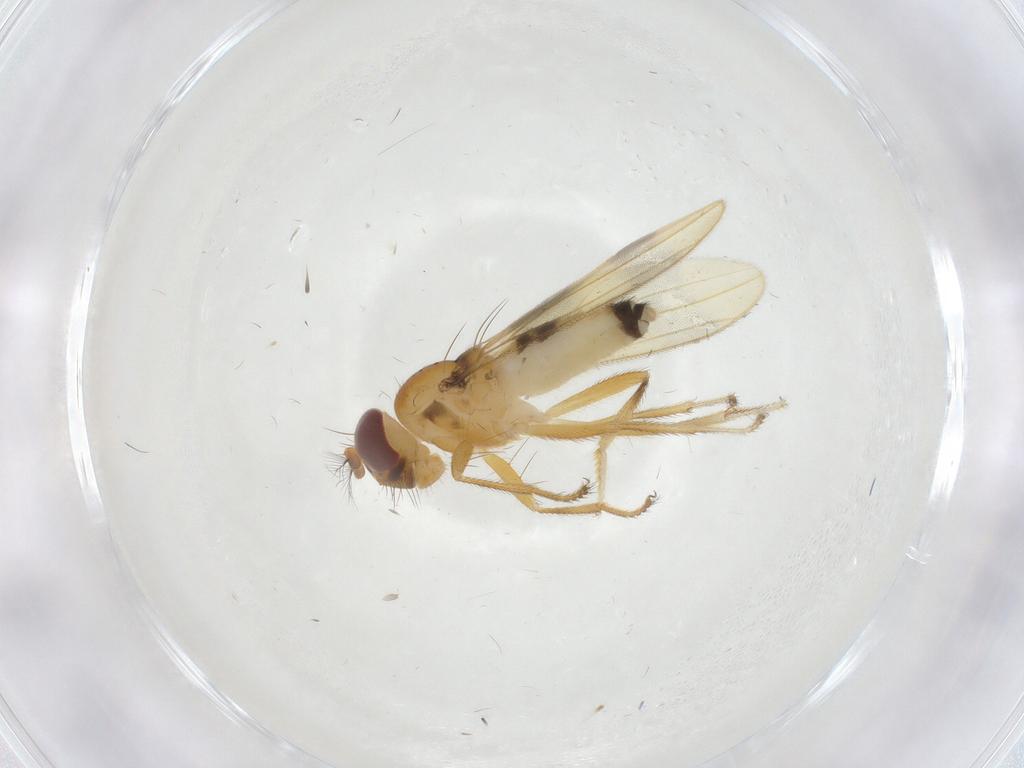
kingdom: Animalia
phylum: Arthropoda
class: Insecta
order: Diptera
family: Periscelididae
